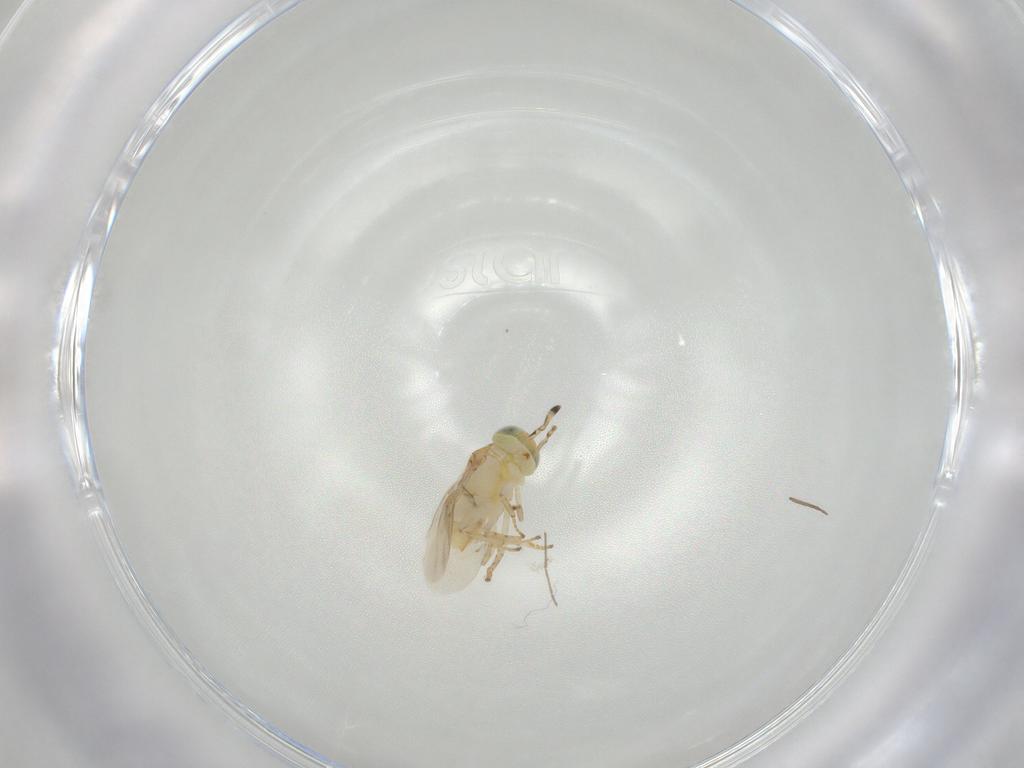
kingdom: Animalia
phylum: Arthropoda
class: Insecta
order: Hymenoptera
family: Encyrtidae
